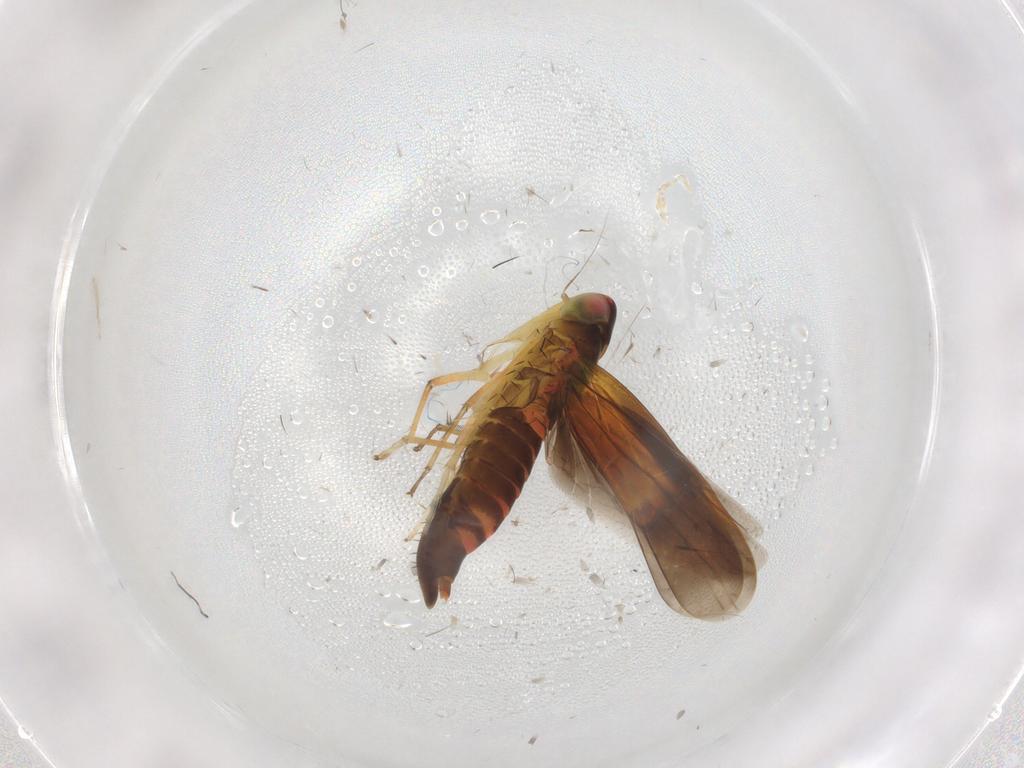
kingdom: Animalia
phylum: Arthropoda
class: Insecta
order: Hemiptera
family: Cicadellidae
